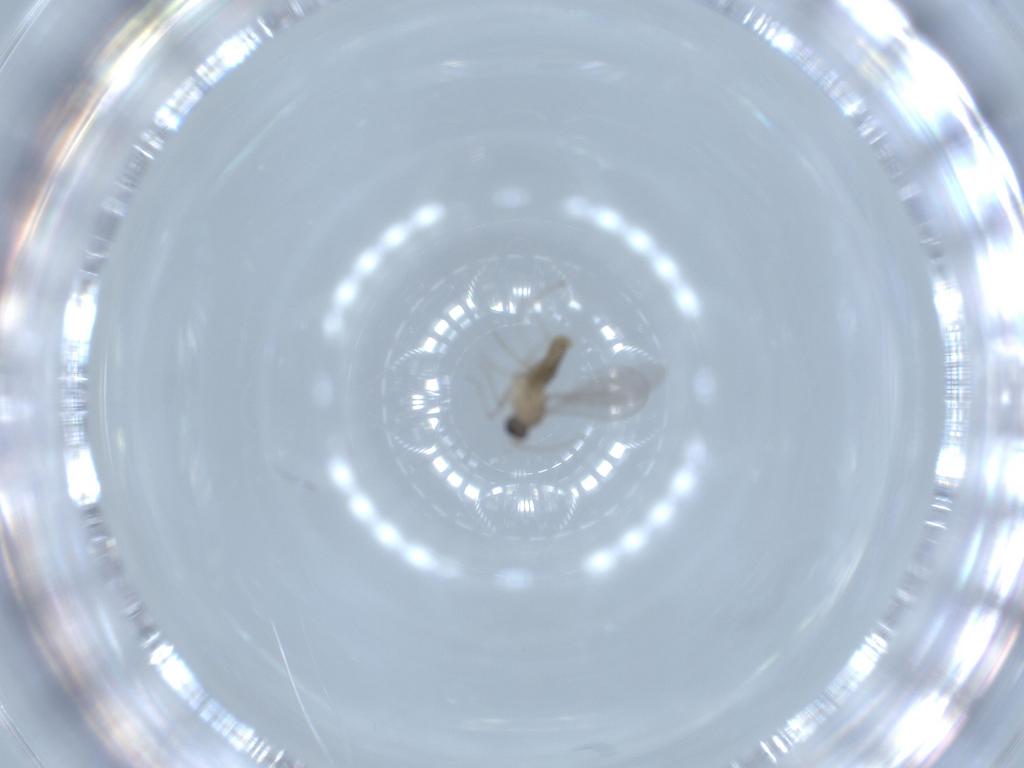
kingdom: Animalia
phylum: Arthropoda
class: Insecta
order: Diptera
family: Cecidomyiidae
